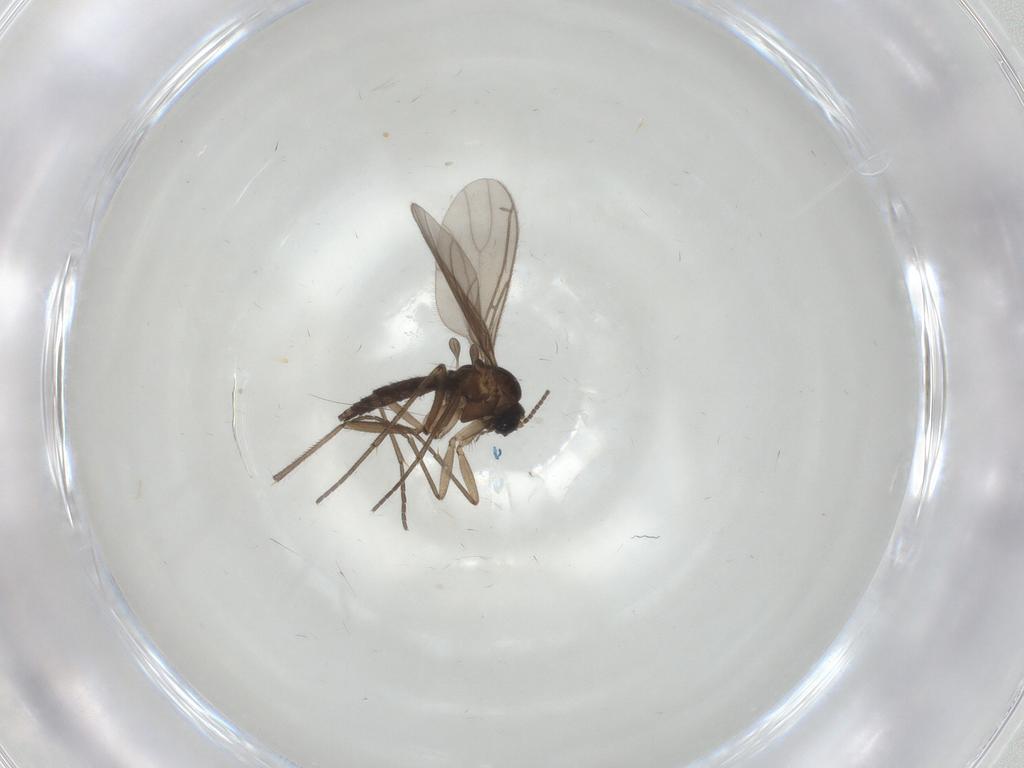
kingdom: Animalia
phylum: Arthropoda
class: Insecta
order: Diptera
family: Sciaridae
